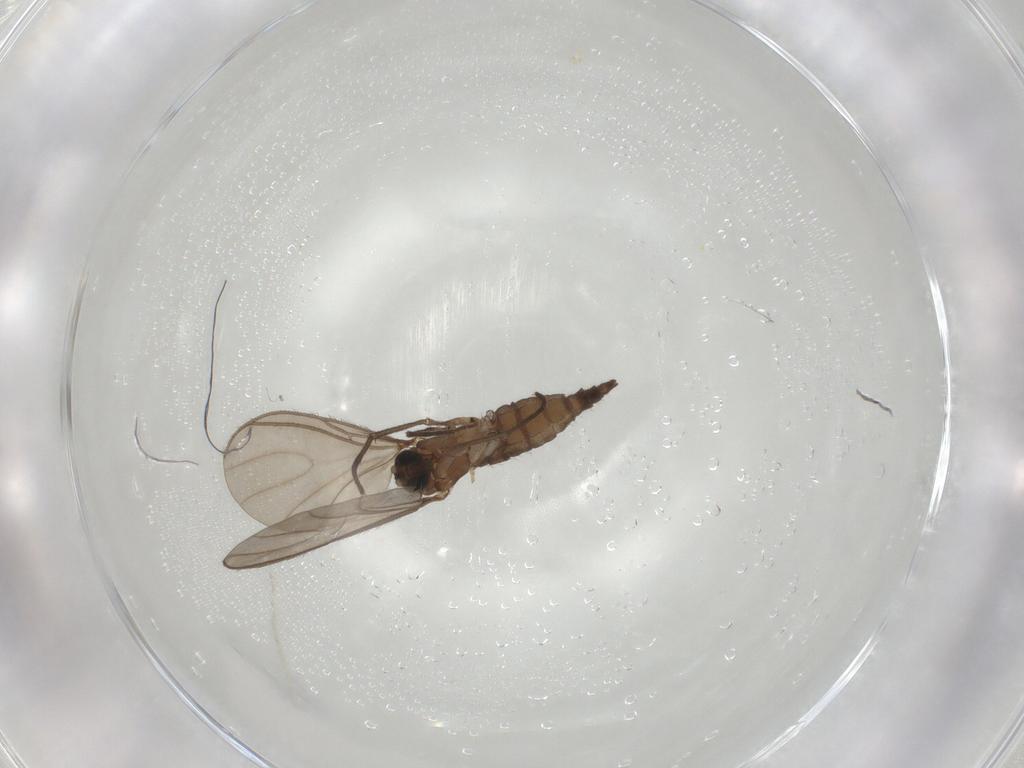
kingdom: Animalia
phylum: Arthropoda
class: Insecta
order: Diptera
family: Sciaridae
